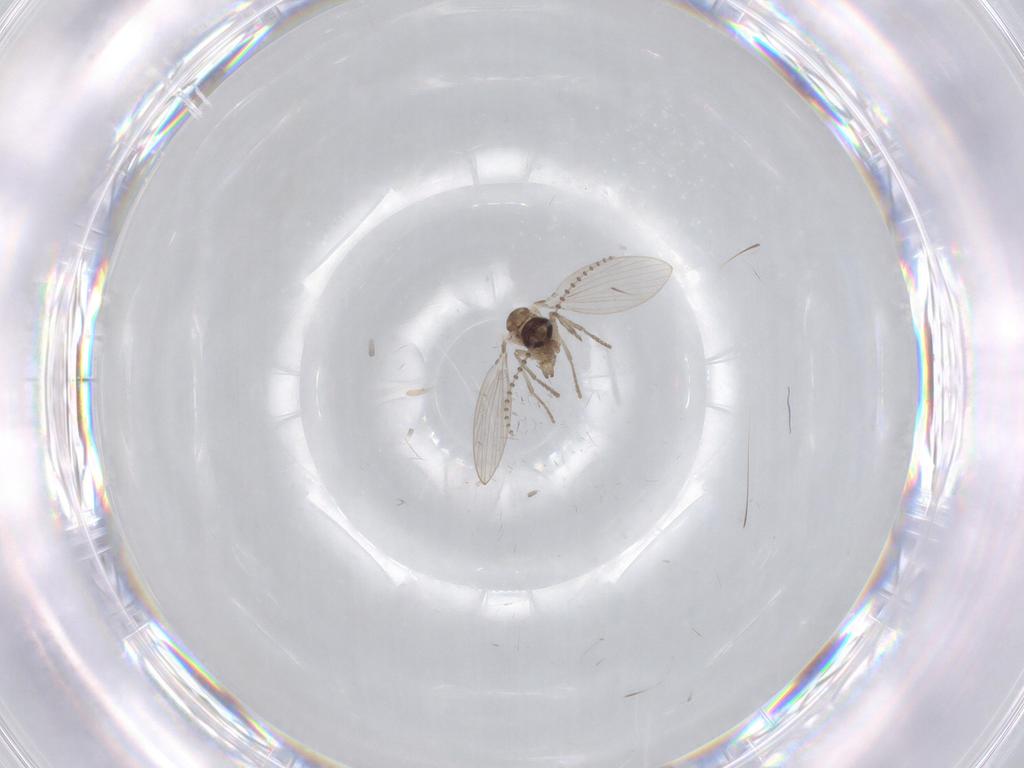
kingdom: Animalia
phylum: Arthropoda
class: Insecta
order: Diptera
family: Psychodidae
